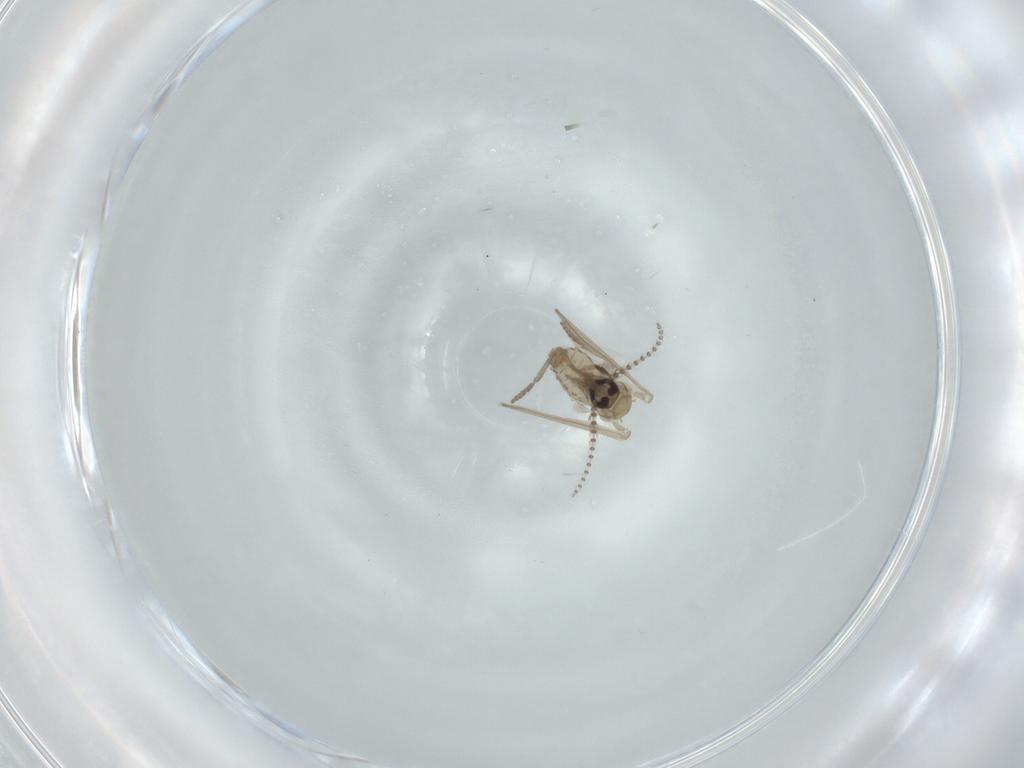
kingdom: Animalia
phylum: Arthropoda
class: Insecta
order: Diptera
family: Psychodidae
